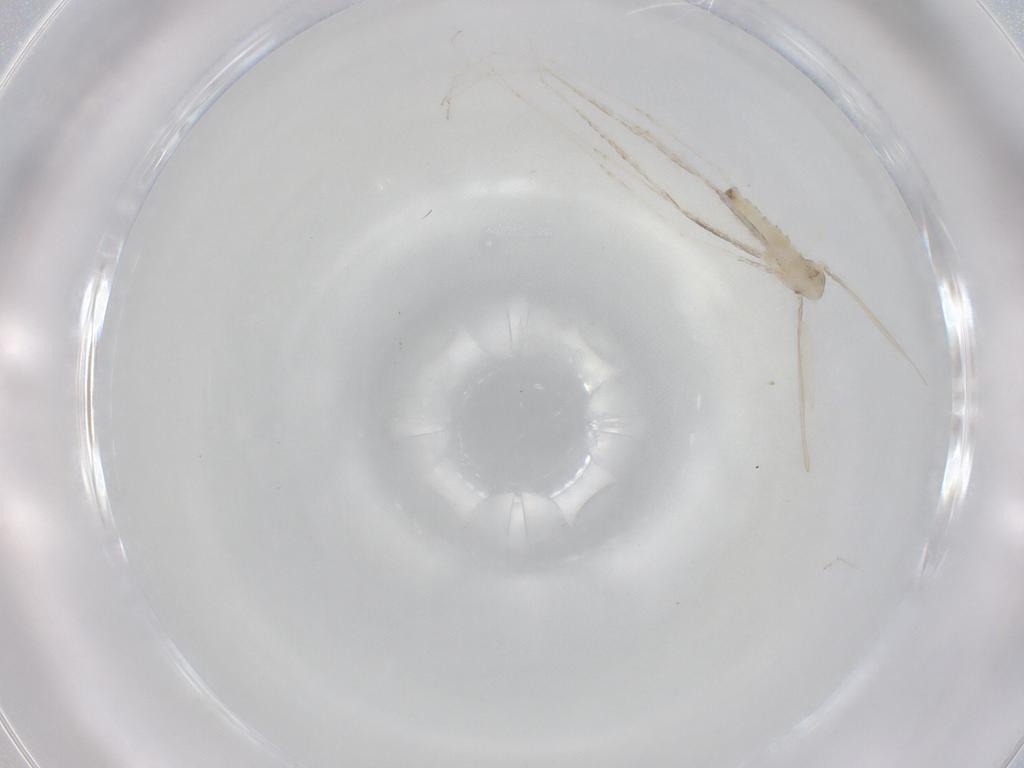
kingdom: Animalia
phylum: Arthropoda
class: Insecta
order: Diptera
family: Cecidomyiidae
